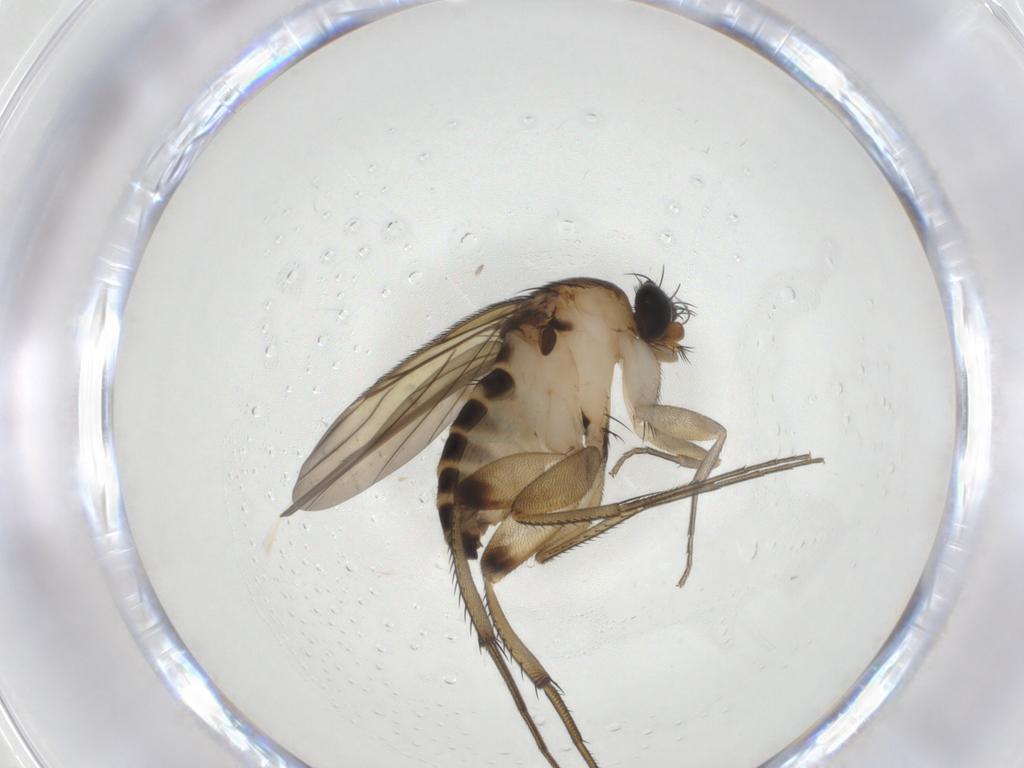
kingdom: Animalia
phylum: Arthropoda
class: Insecta
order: Diptera
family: Phoridae
